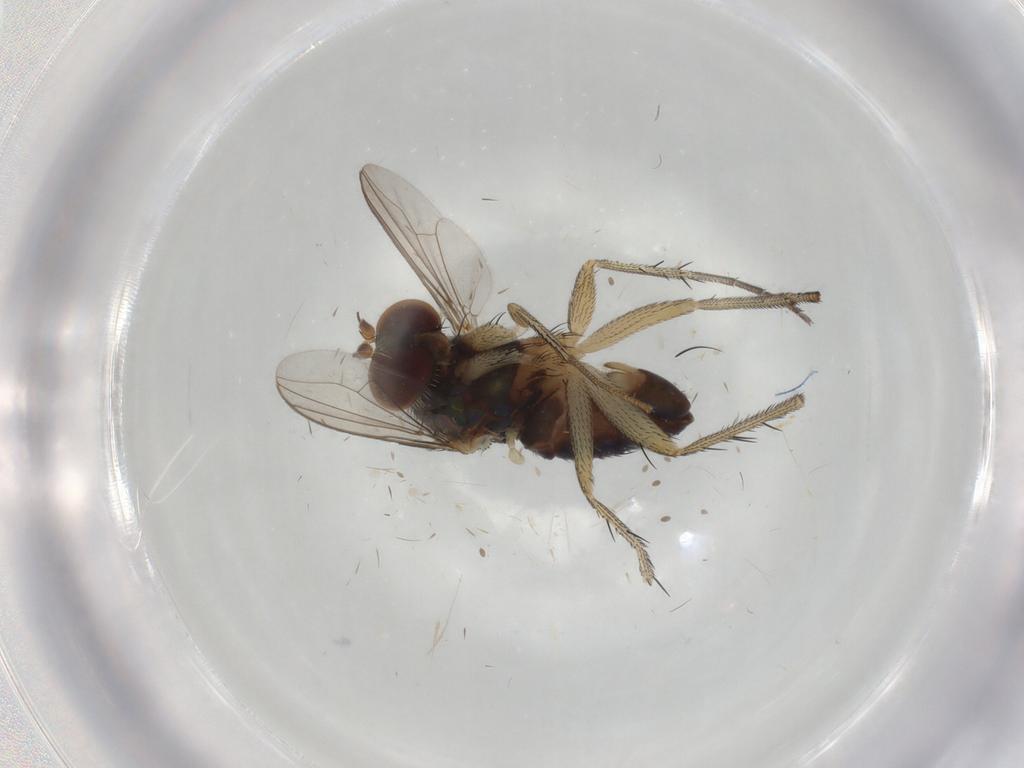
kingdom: Animalia
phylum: Arthropoda
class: Insecta
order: Diptera
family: Dolichopodidae
